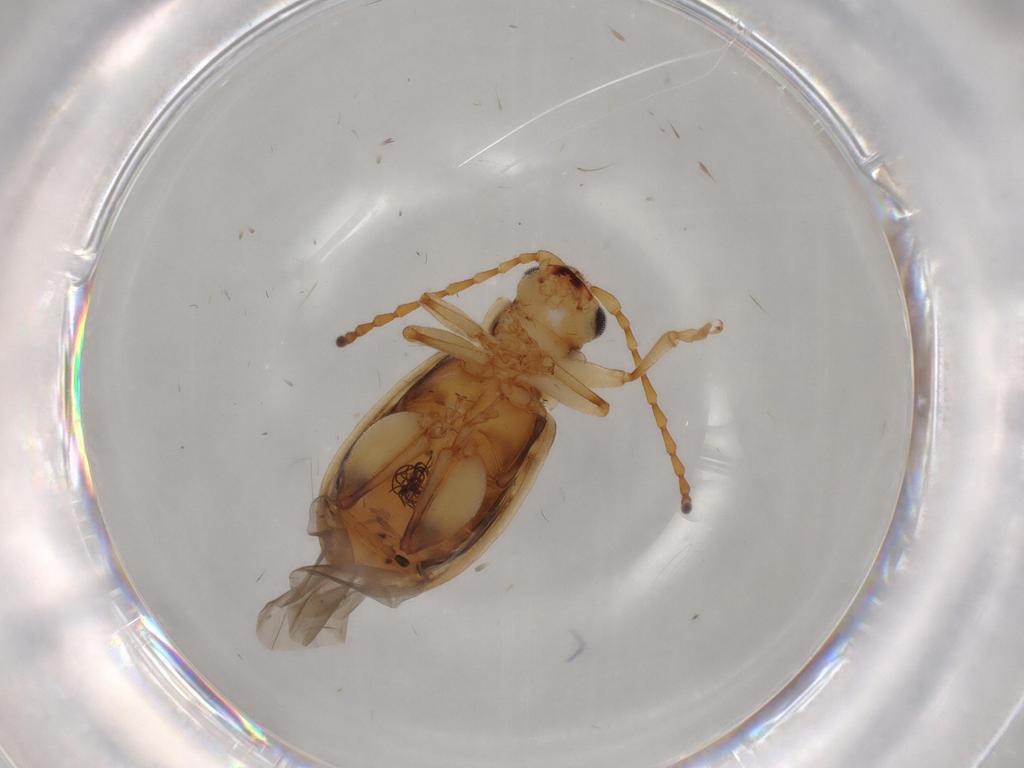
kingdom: Animalia
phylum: Arthropoda
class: Insecta
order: Coleoptera
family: Chrysomelidae
